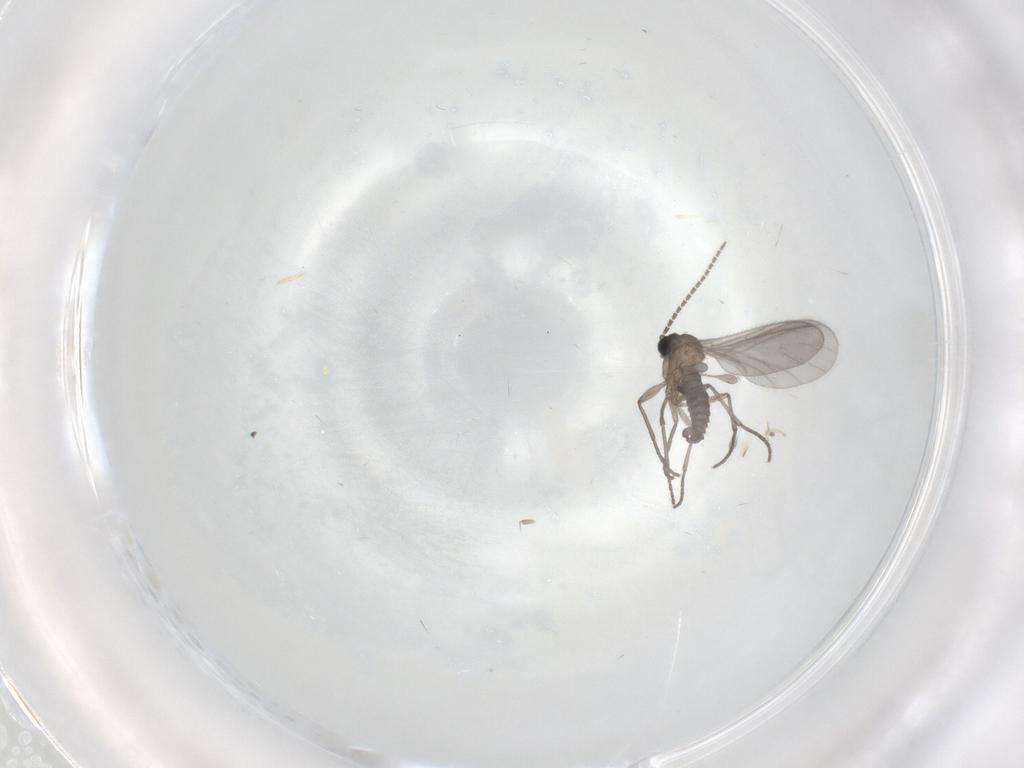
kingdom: Animalia
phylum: Arthropoda
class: Insecta
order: Diptera
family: Sciaridae
